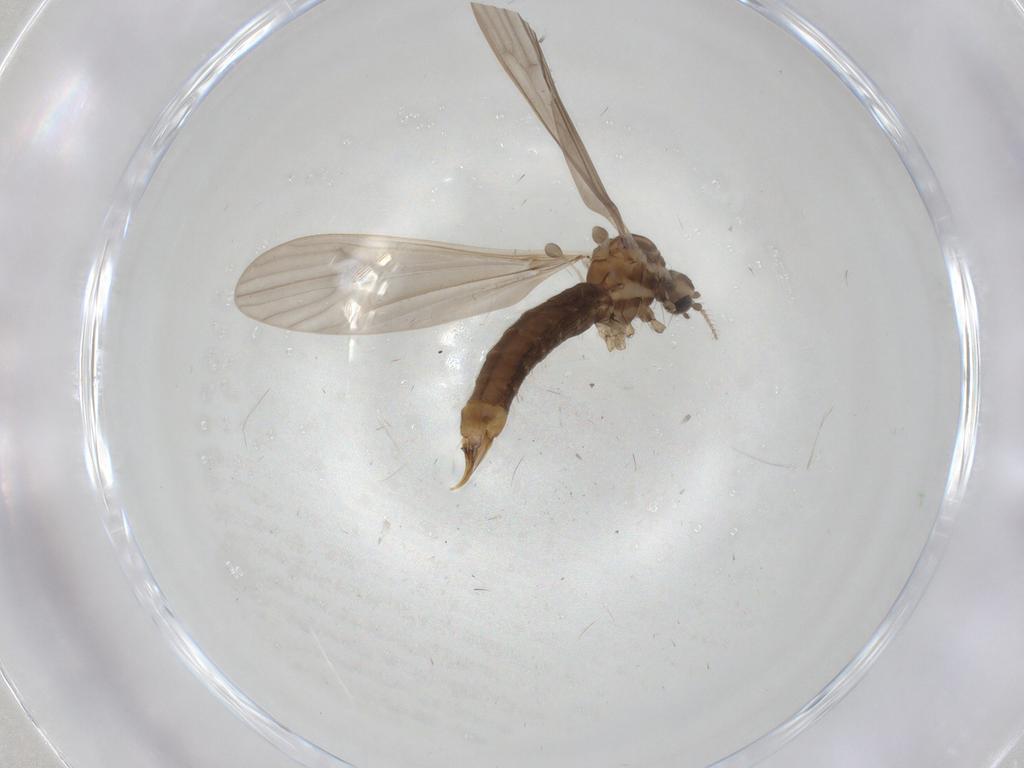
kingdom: Animalia
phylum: Arthropoda
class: Insecta
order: Diptera
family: Limoniidae
